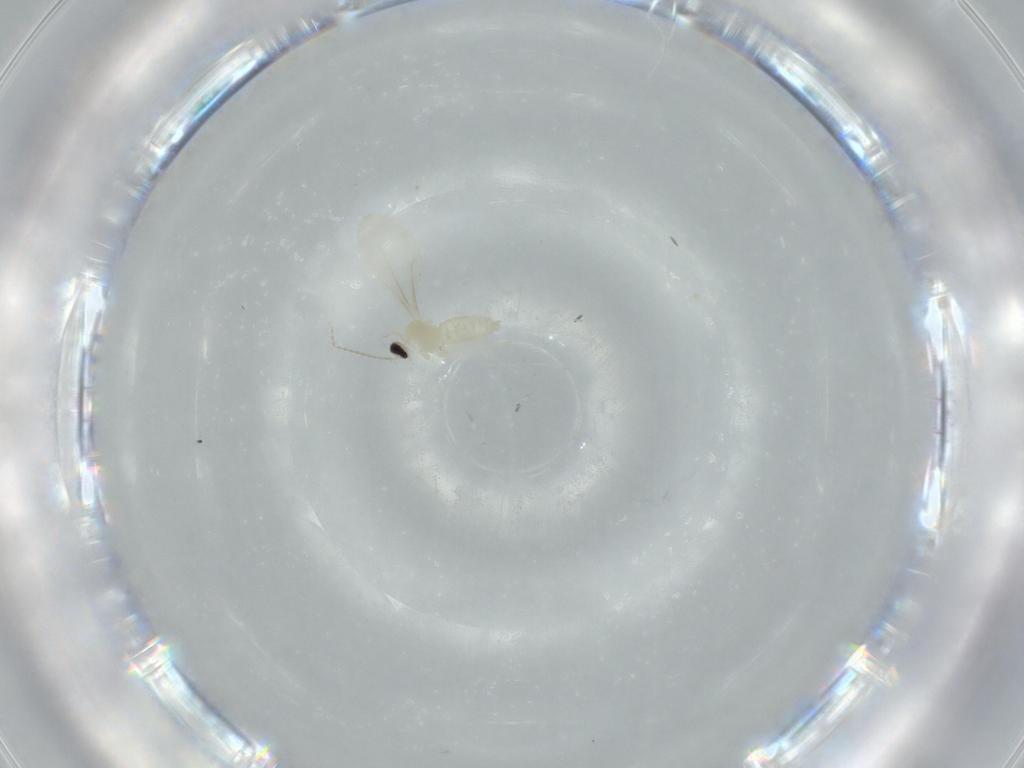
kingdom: Animalia
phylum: Arthropoda
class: Insecta
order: Diptera
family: Cecidomyiidae
